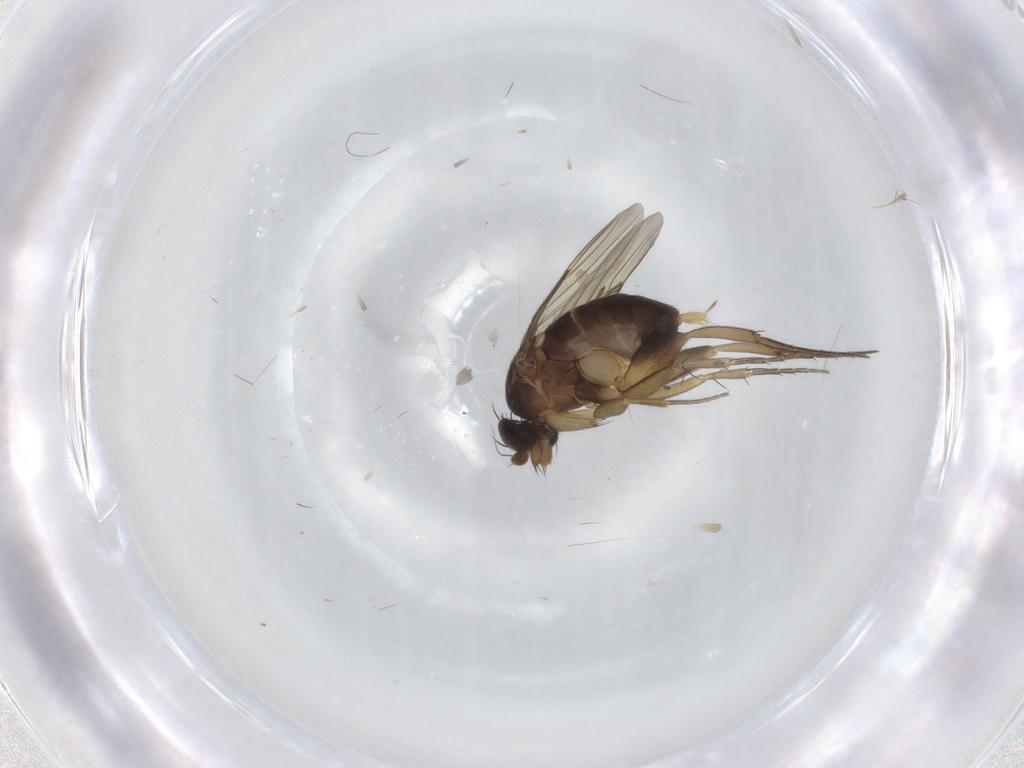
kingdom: Animalia
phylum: Arthropoda
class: Insecta
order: Diptera
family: Phoridae
